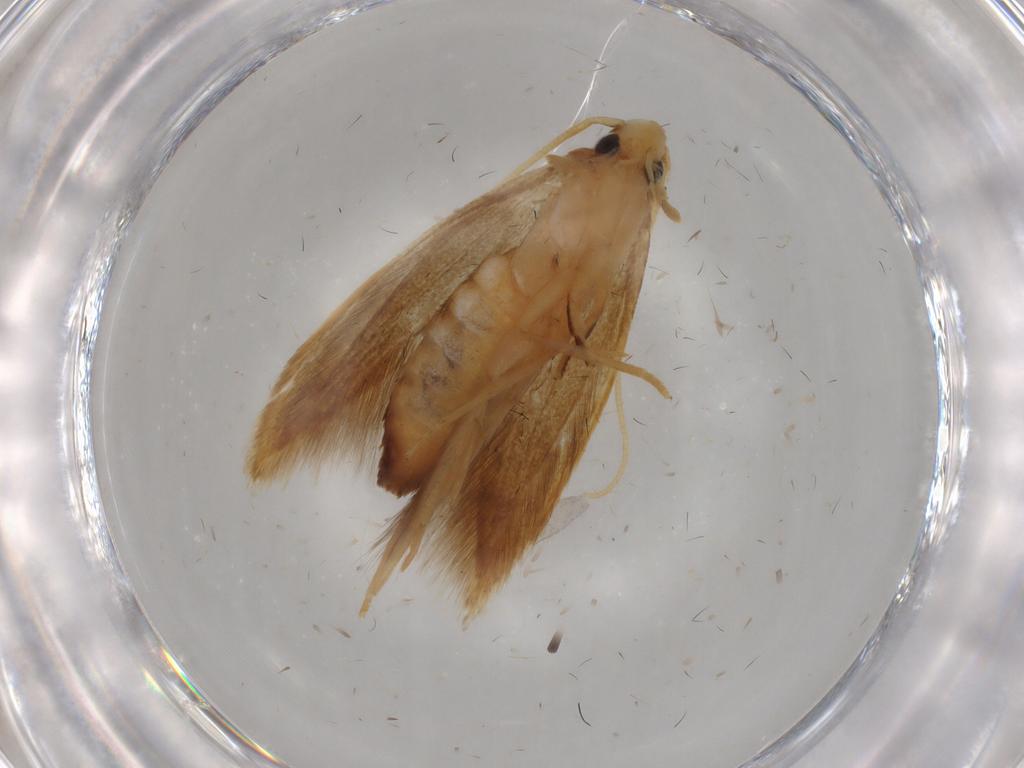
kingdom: Animalia
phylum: Arthropoda
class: Insecta
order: Lepidoptera
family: Tineidae
